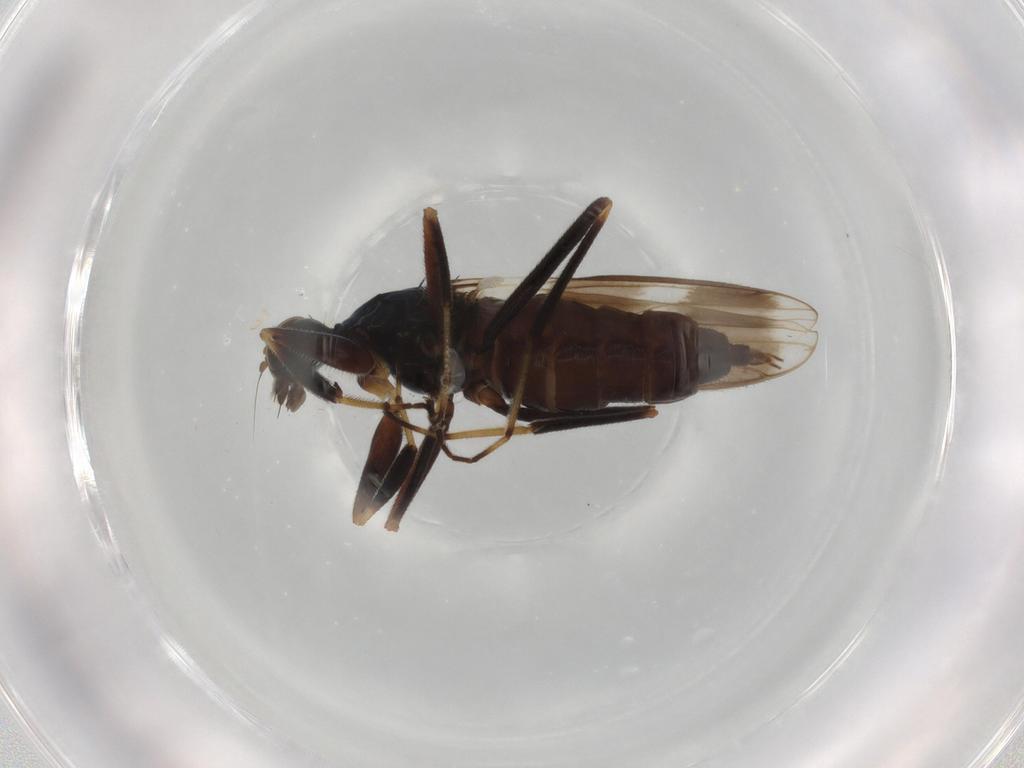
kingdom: Animalia
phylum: Arthropoda
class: Insecta
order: Diptera
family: Hybotidae
